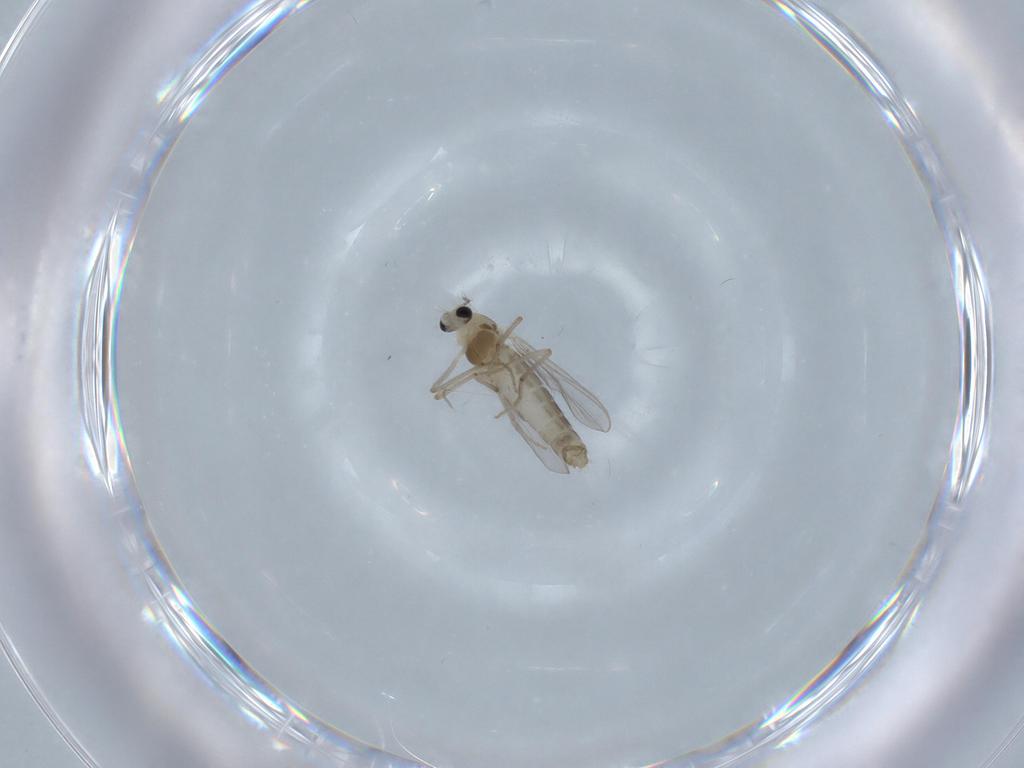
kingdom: Animalia
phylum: Arthropoda
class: Insecta
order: Diptera
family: Chironomidae
